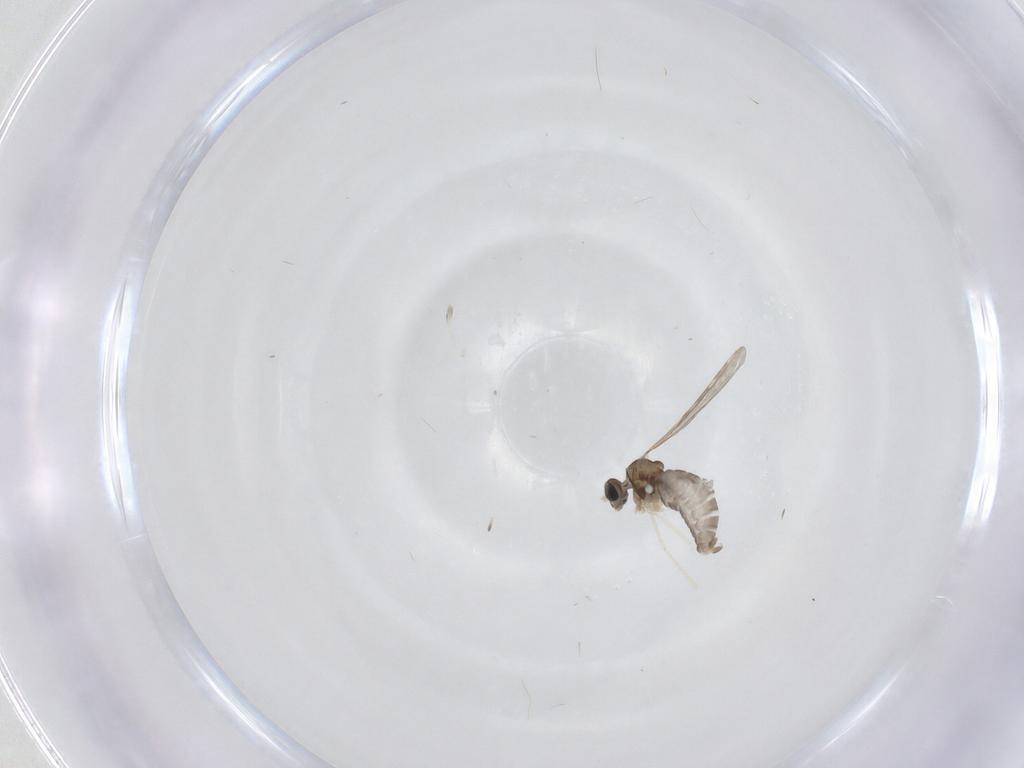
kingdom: Animalia
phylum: Arthropoda
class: Insecta
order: Diptera
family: Cecidomyiidae
